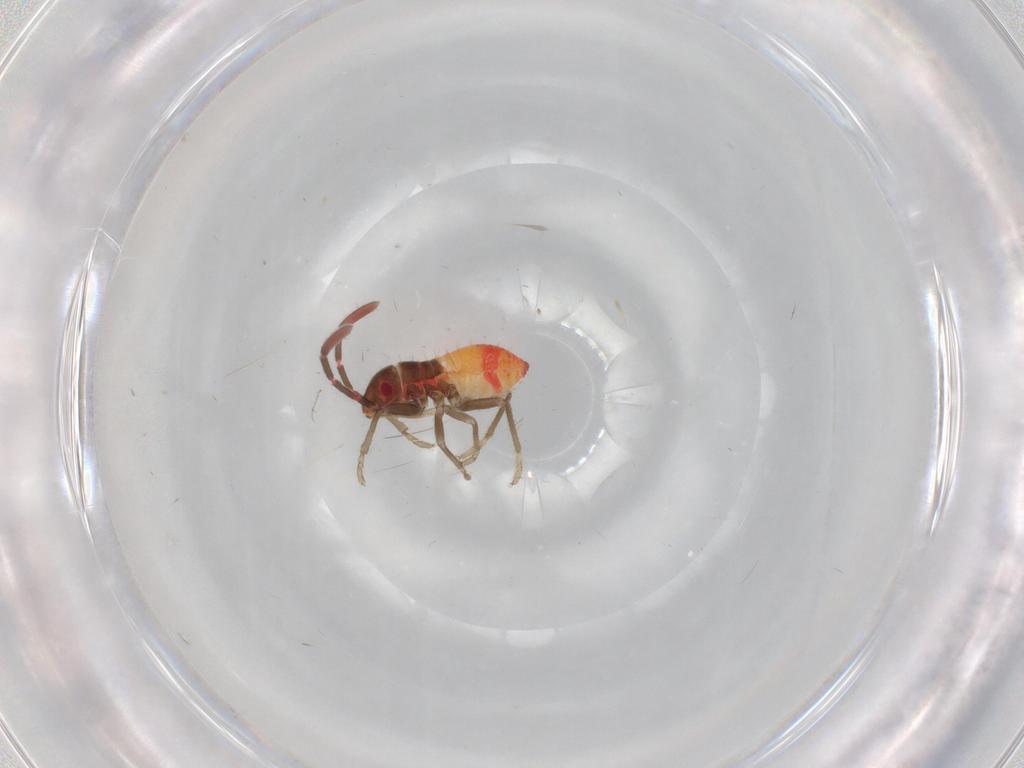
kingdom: Animalia
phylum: Arthropoda
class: Insecta
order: Hemiptera
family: Rhyparochromidae
